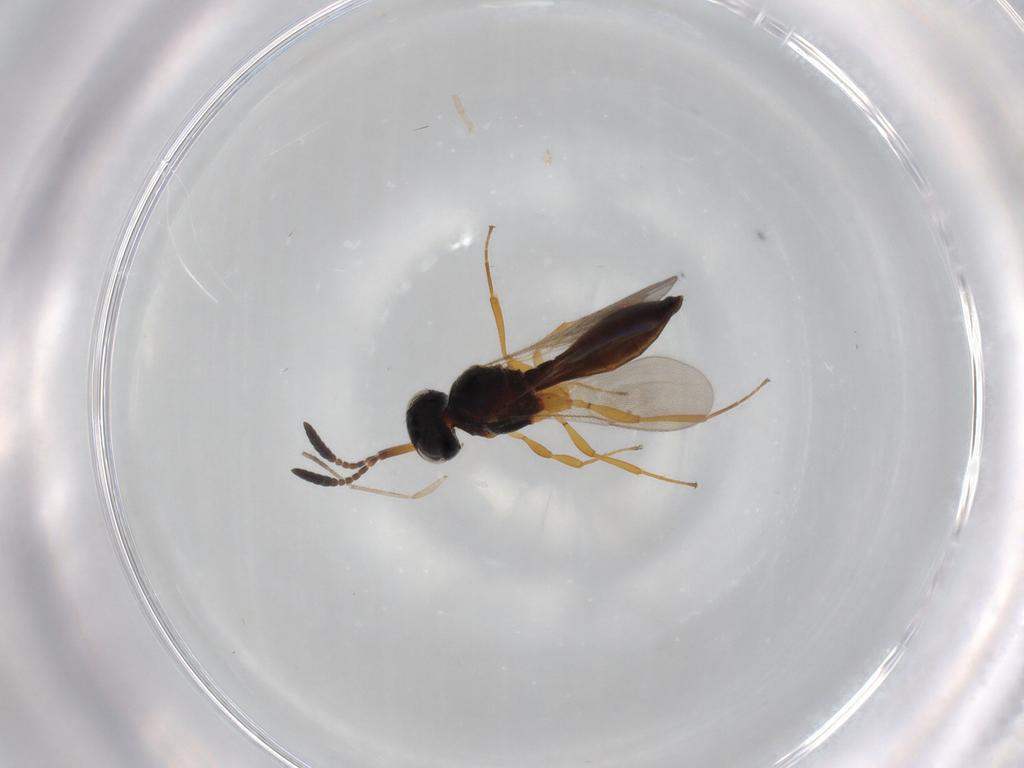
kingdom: Animalia
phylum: Arthropoda
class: Insecta
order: Hymenoptera
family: Scelionidae
